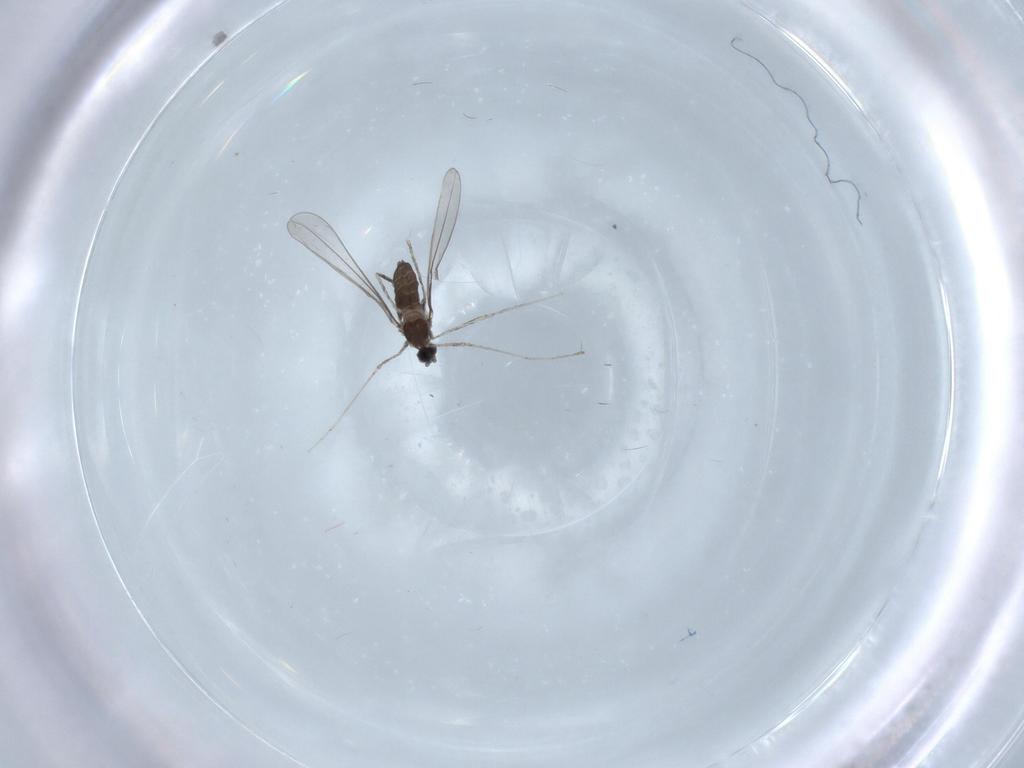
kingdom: Animalia
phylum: Arthropoda
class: Insecta
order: Diptera
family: Cecidomyiidae
